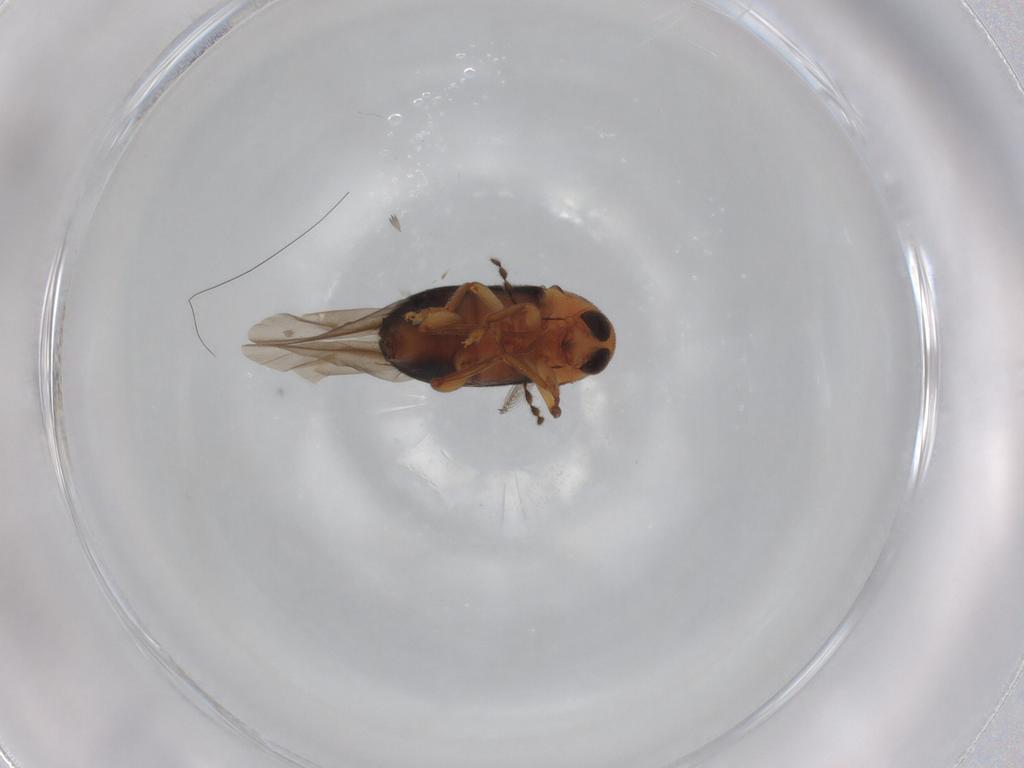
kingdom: Animalia
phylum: Arthropoda
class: Insecta
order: Coleoptera
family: Anthribidae
